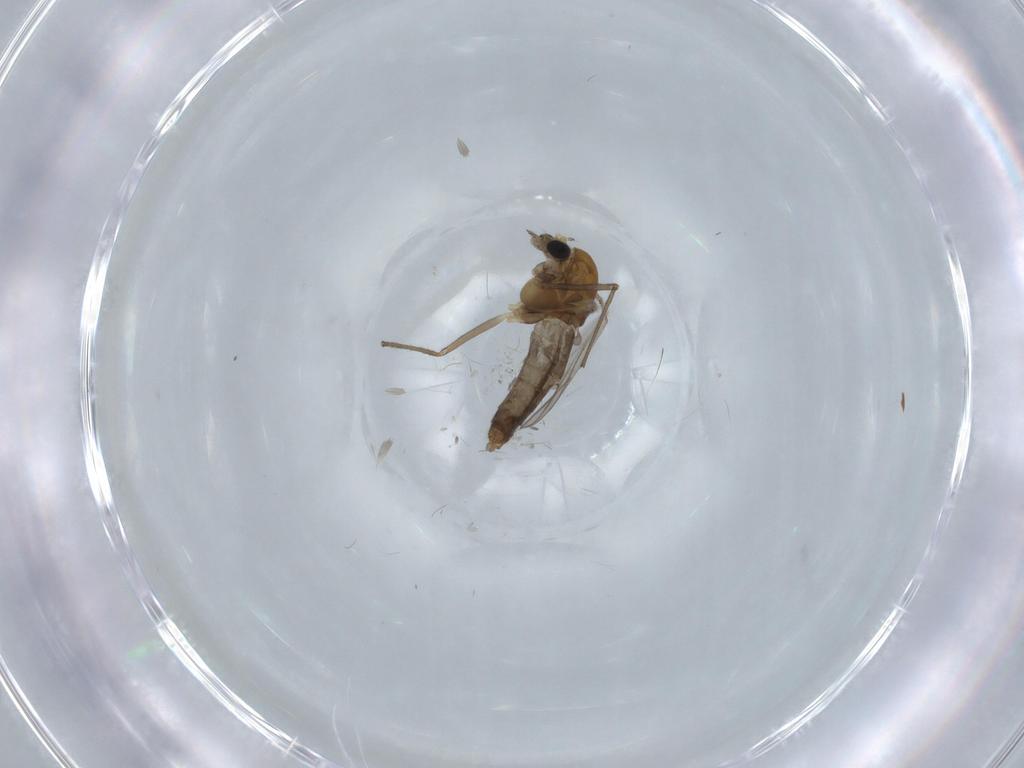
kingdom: Animalia
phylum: Arthropoda
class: Insecta
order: Diptera
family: Chironomidae
